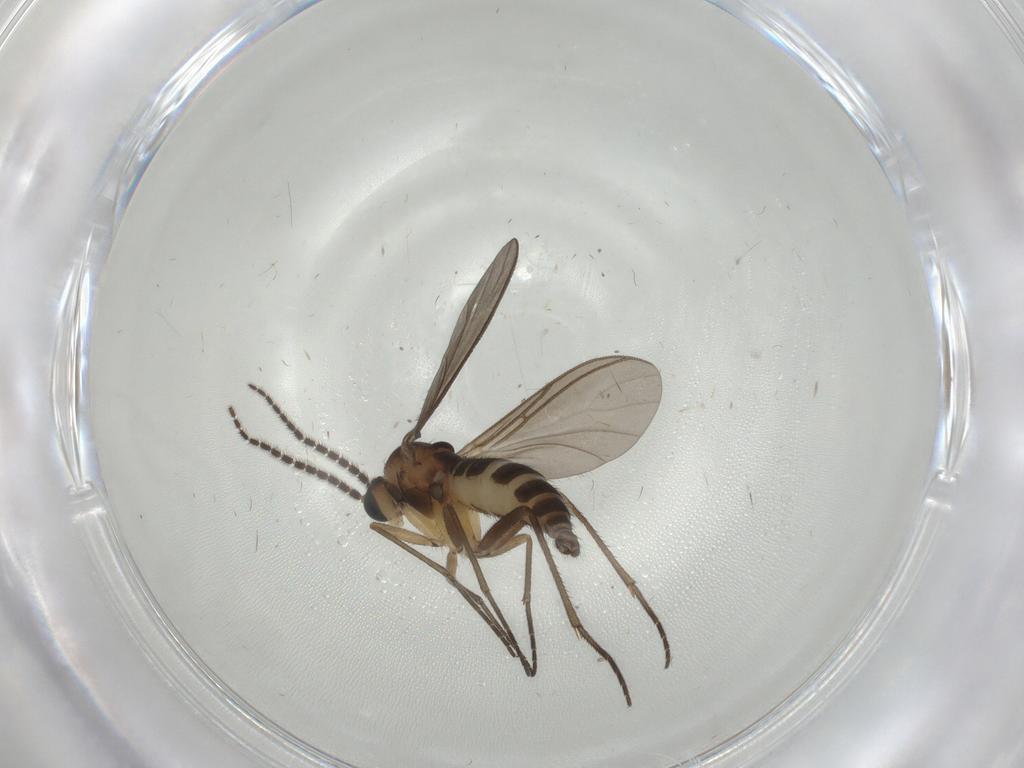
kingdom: Animalia
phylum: Arthropoda
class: Insecta
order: Diptera
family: Sciaridae
